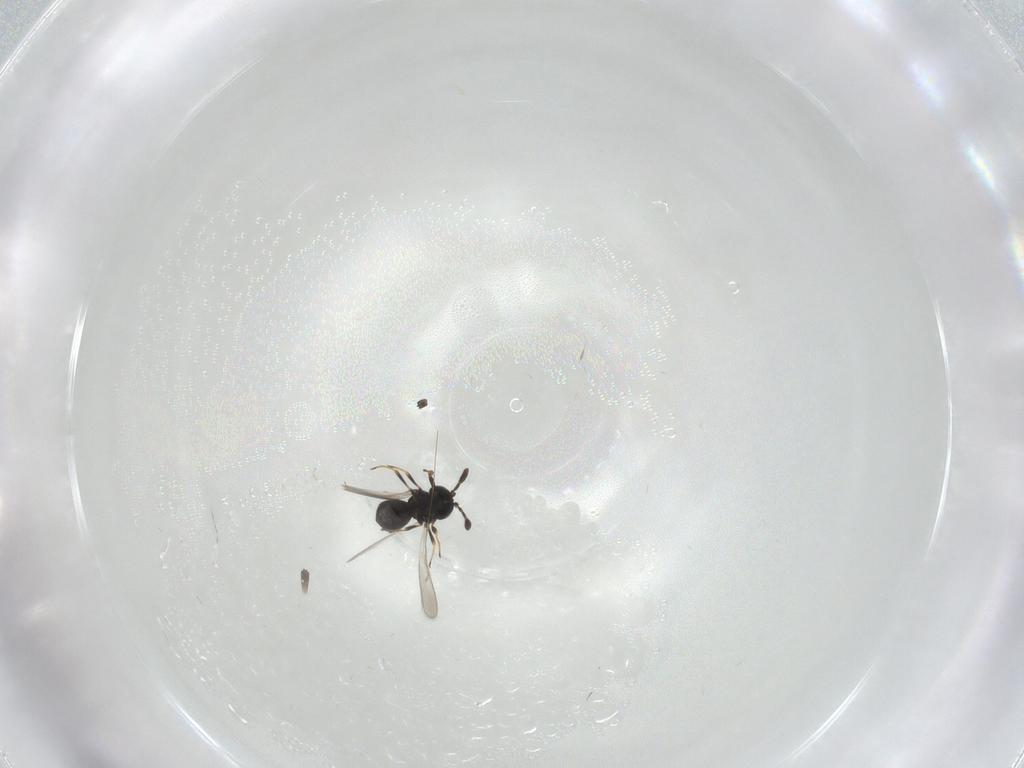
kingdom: Animalia
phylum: Arthropoda
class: Insecta
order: Hymenoptera
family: Scelionidae
